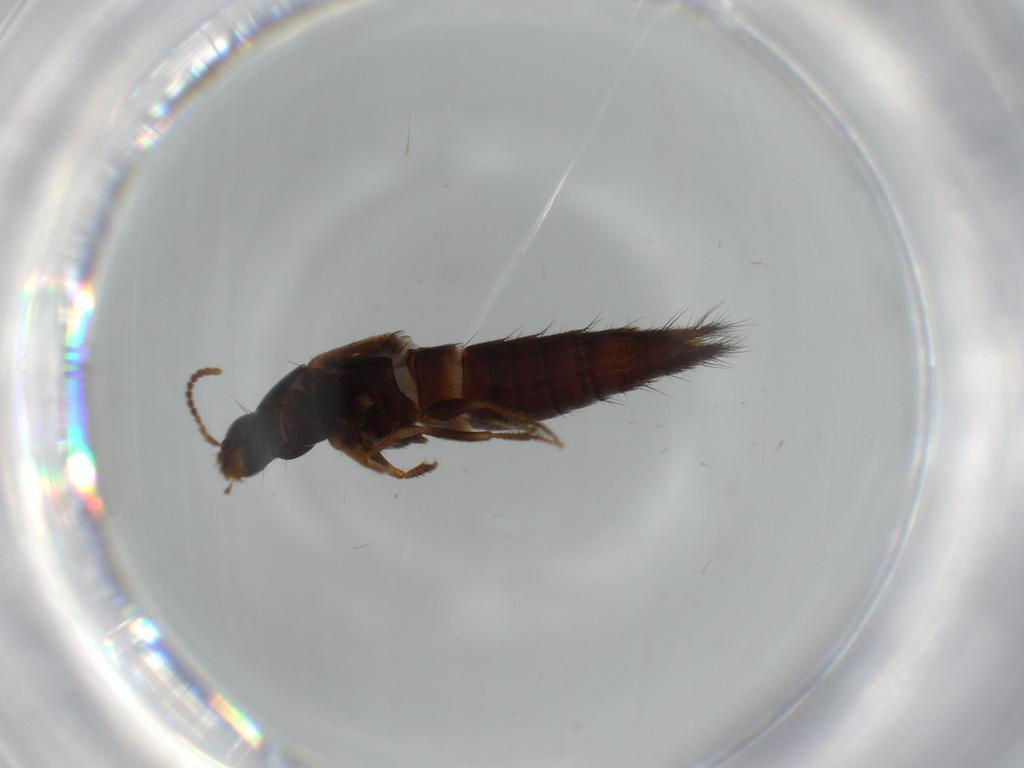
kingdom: Animalia
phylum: Arthropoda
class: Insecta
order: Coleoptera
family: Staphylinidae
